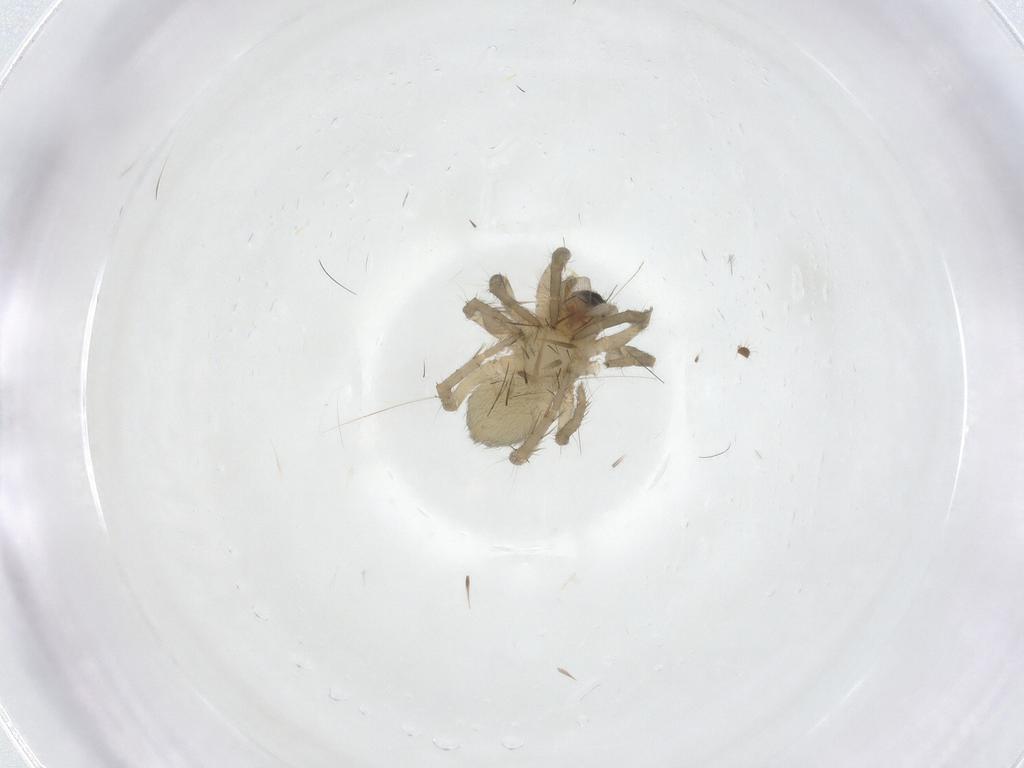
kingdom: Animalia
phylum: Arthropoda
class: Arachnida
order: Araneae
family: Lycosidae
